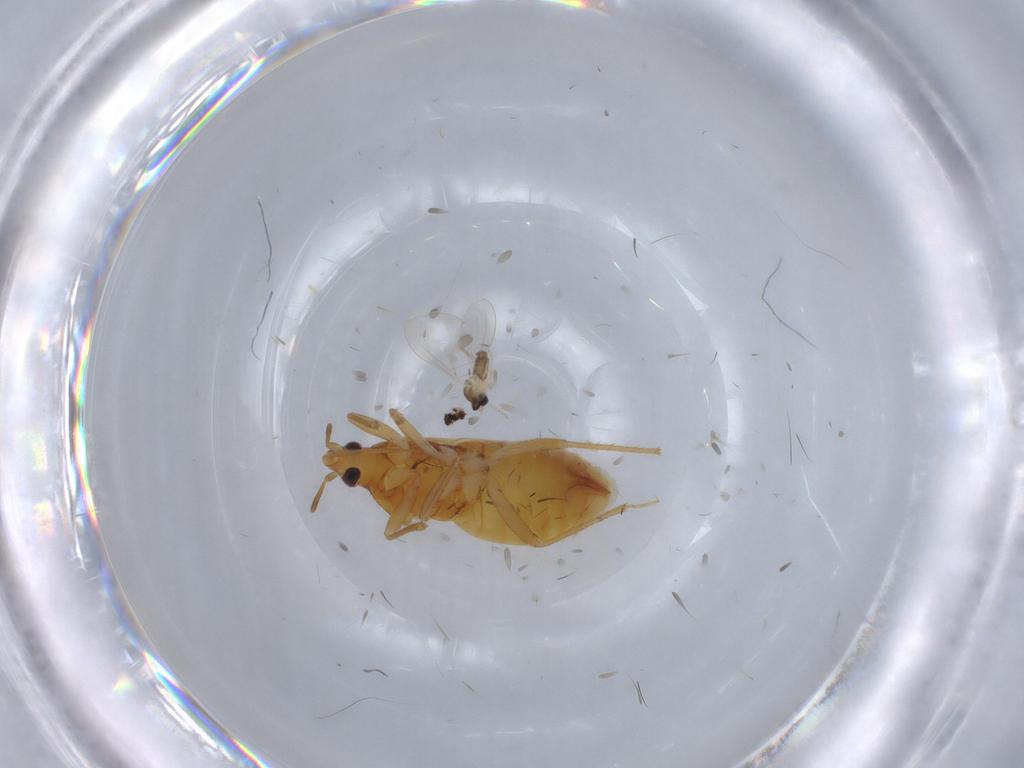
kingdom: Animalia
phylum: Arthropoda
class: Insecta
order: Diptera
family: Cecidomyiidae
